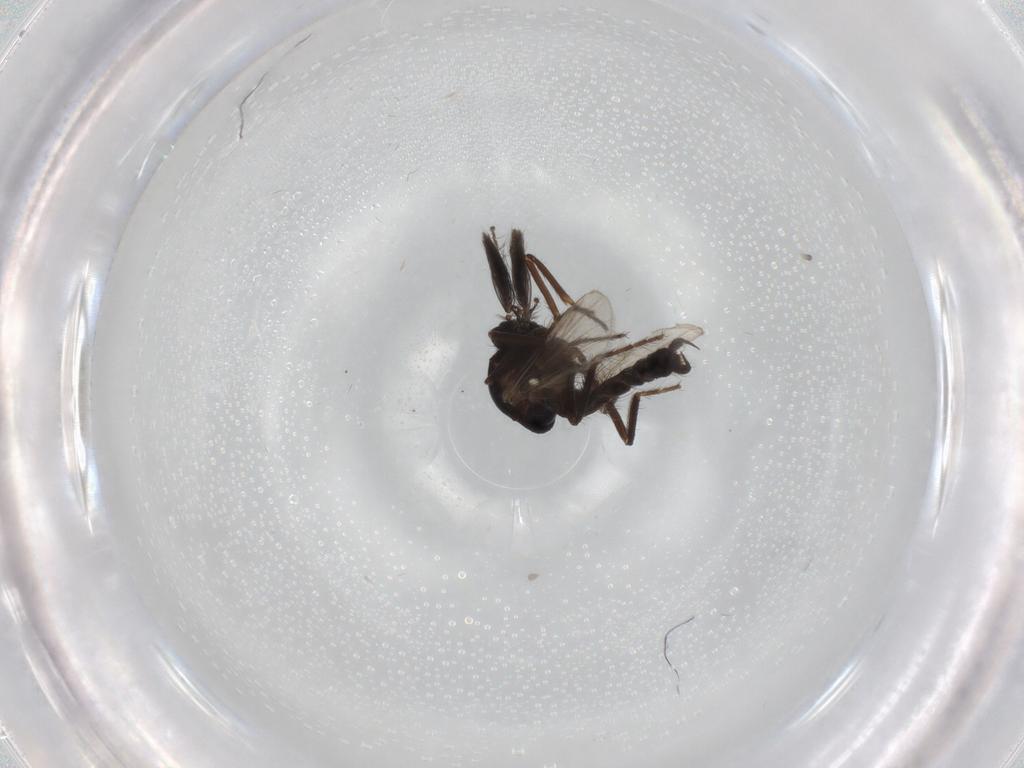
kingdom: Animalia
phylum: Arthropoda
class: Insecta
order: Diptera
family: Ceratopogonidae
